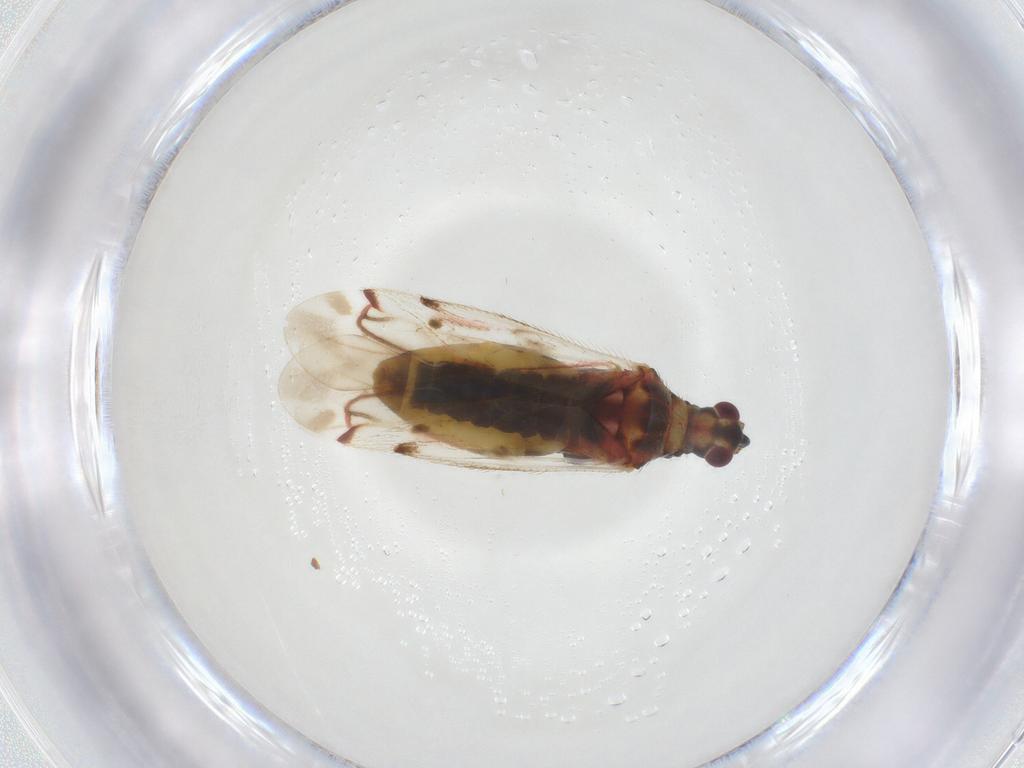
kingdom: Animalia
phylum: Arthropoda
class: Insecta
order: Hemiptera
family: Miridae
